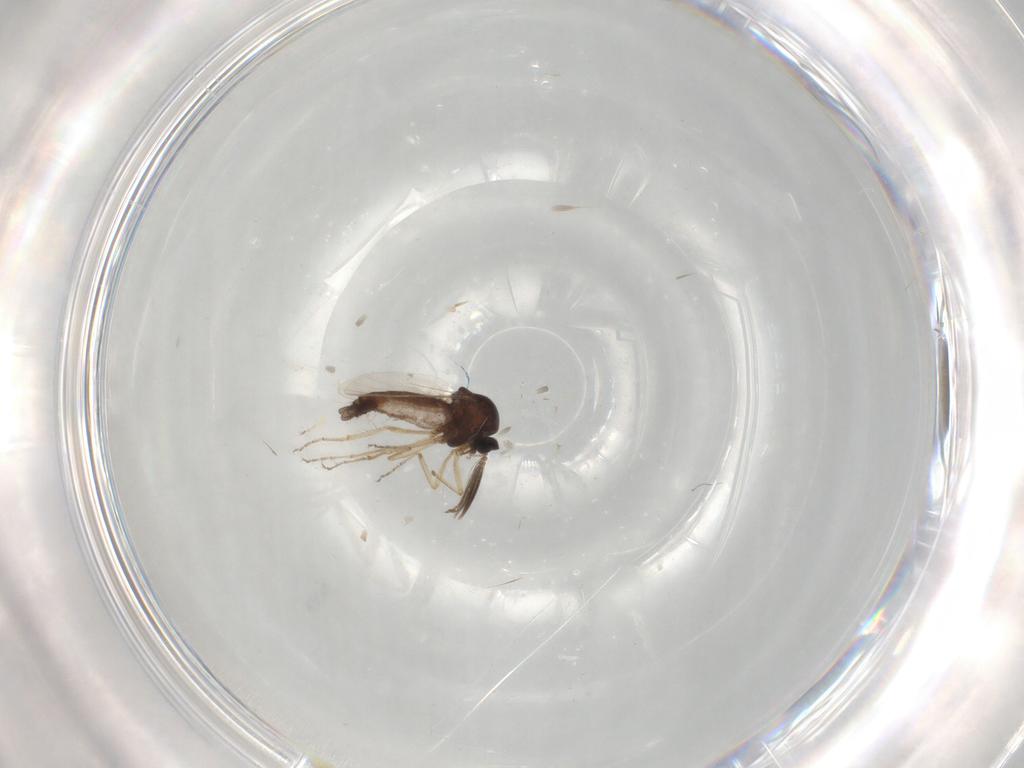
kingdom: Animalia
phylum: Arthropoda
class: Insecta
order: Diptera
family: Ceratopogonidae
